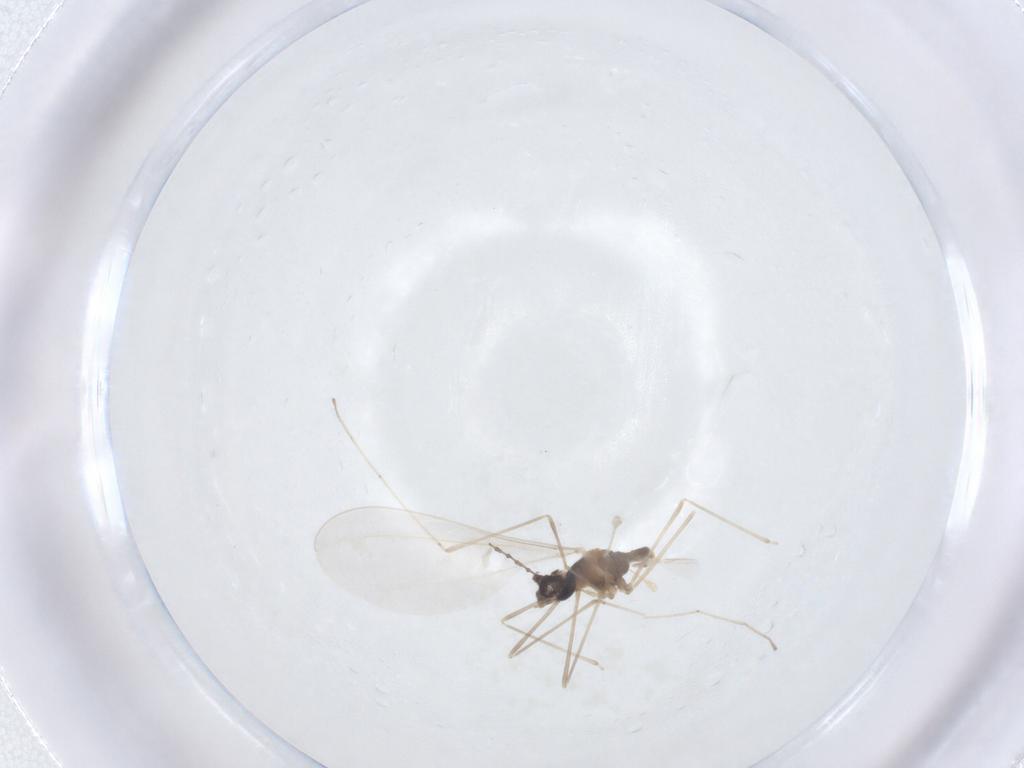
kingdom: Animalia
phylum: Arthropoda
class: Insecta
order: Diptera
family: Cecidomyiidae
